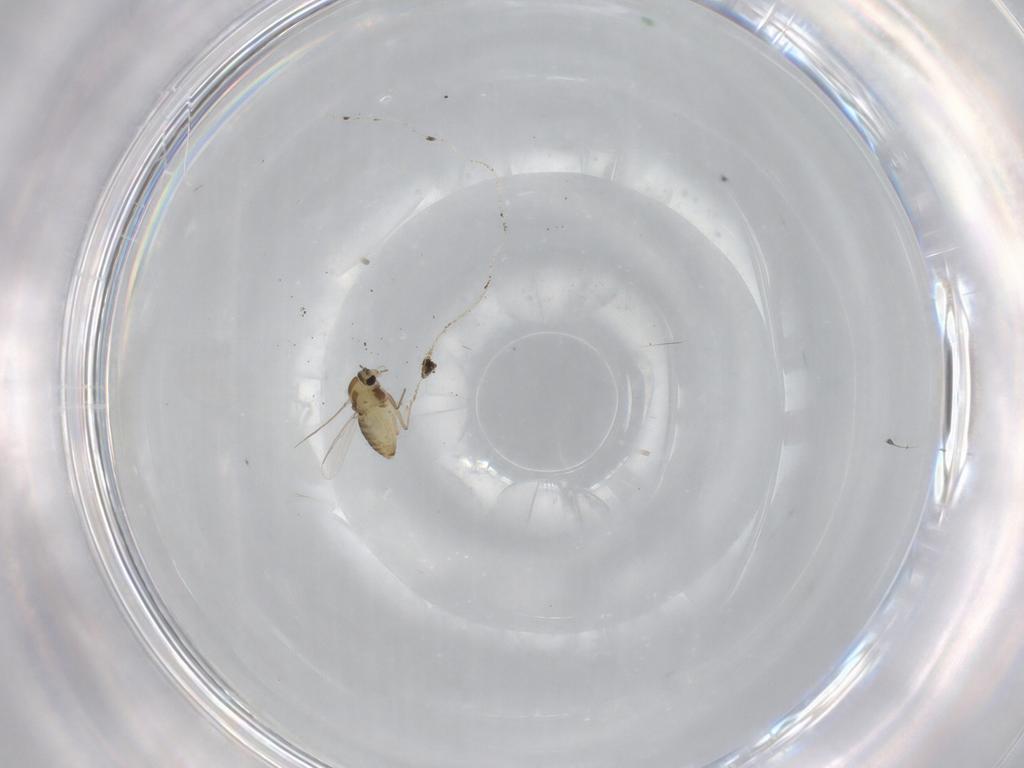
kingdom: Animalia
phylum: Arthropoda
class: Insecta
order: Diptera
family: Chironomidae
